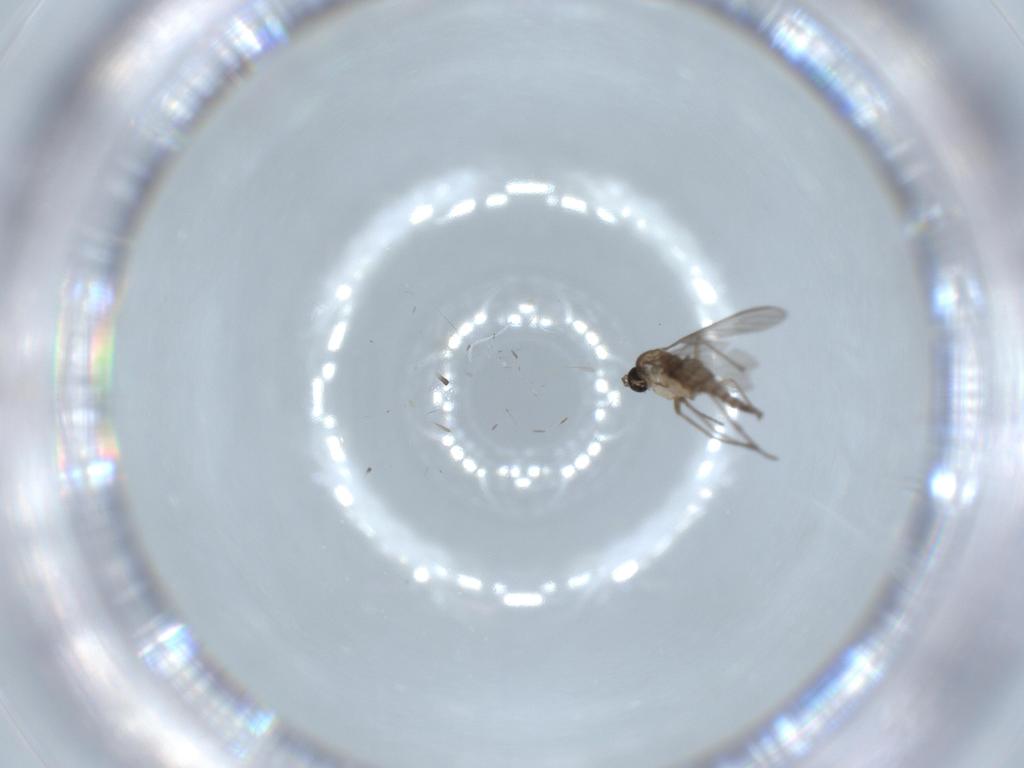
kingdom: Animalia
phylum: Arthropoda
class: Insecta
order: Diptera
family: Sciaridae
